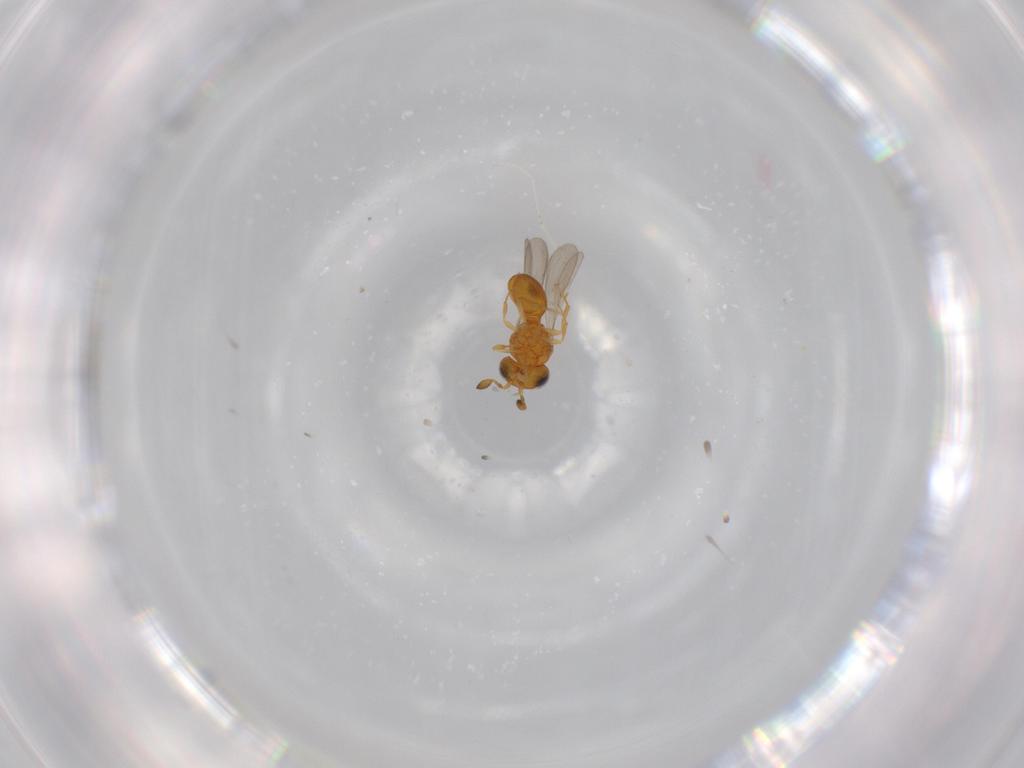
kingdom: Animalia
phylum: Arthropoda
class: Insecta
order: Hymenoptera
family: Scelionidae
